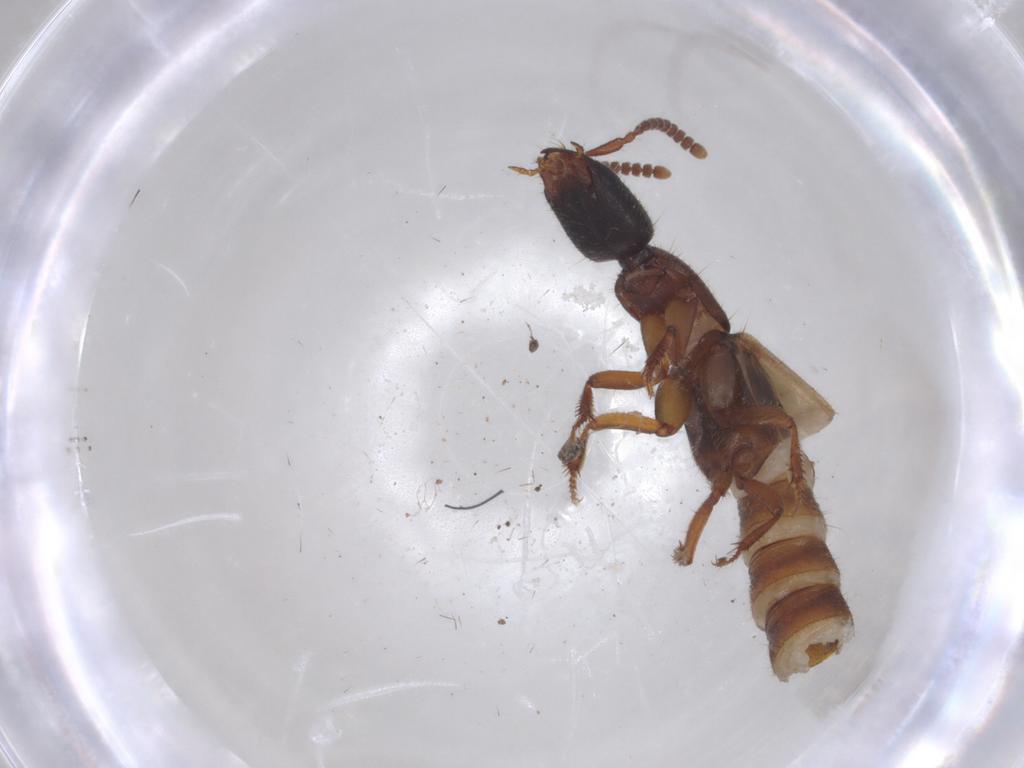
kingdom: Animalia
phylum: Arthropoda
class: Insecta
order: Coleoptera
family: Staphylinidae
